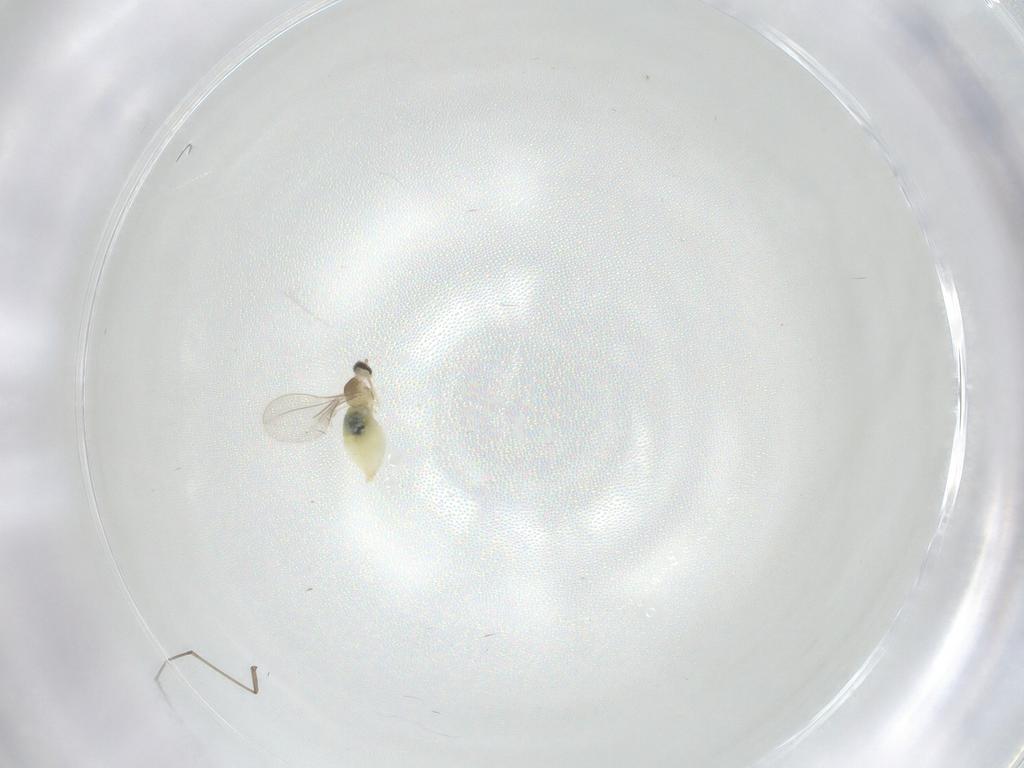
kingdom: Animalia
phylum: Arthropoda
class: Insecta
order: Diptera
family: Cecidomyiidae
